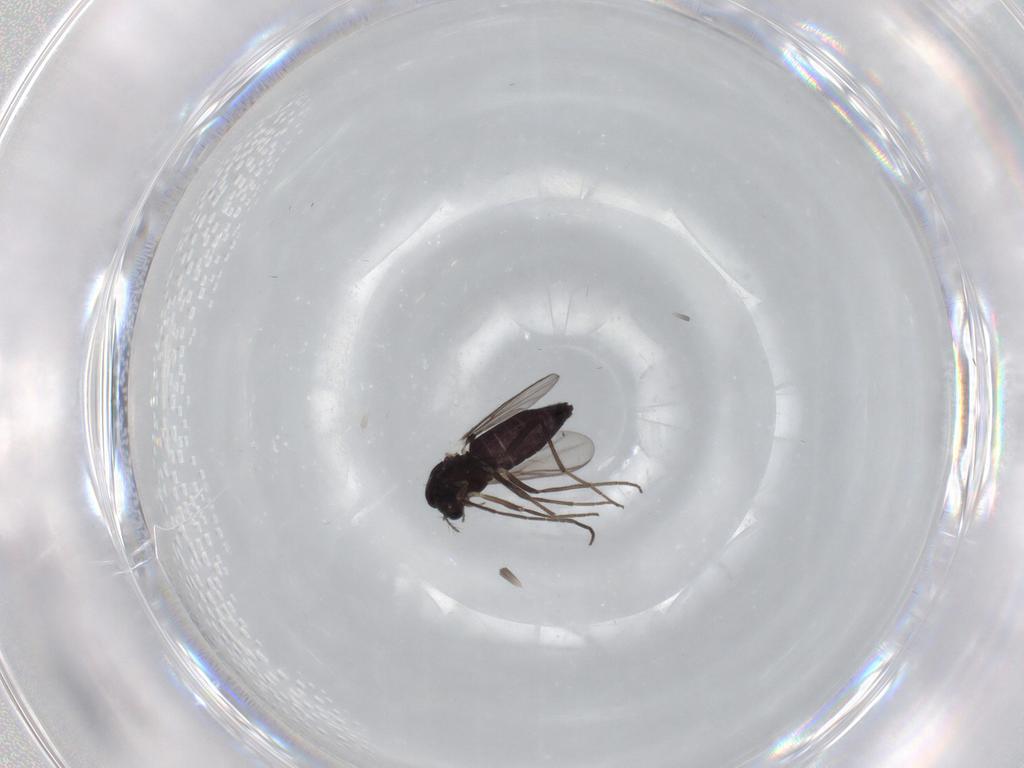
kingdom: Animalia
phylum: Arthropoda
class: Insecta
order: Diptera
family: Chironomidae
